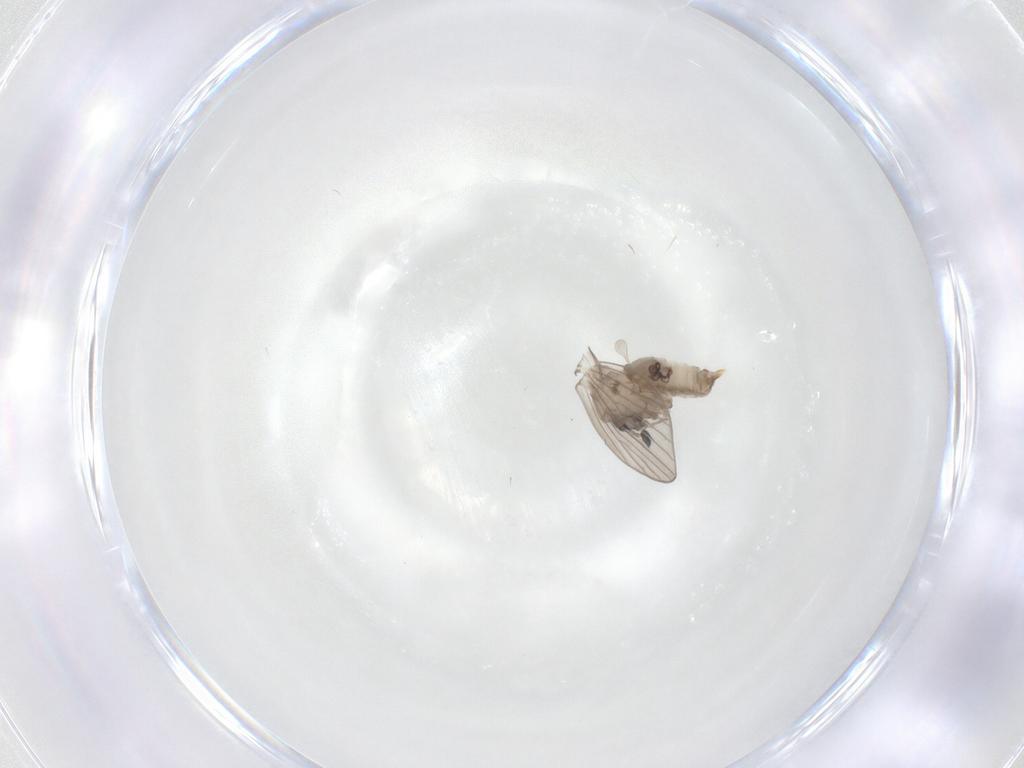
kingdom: Animalia
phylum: Arthropoda
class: Insecta
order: Diptera
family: Psychodidae
